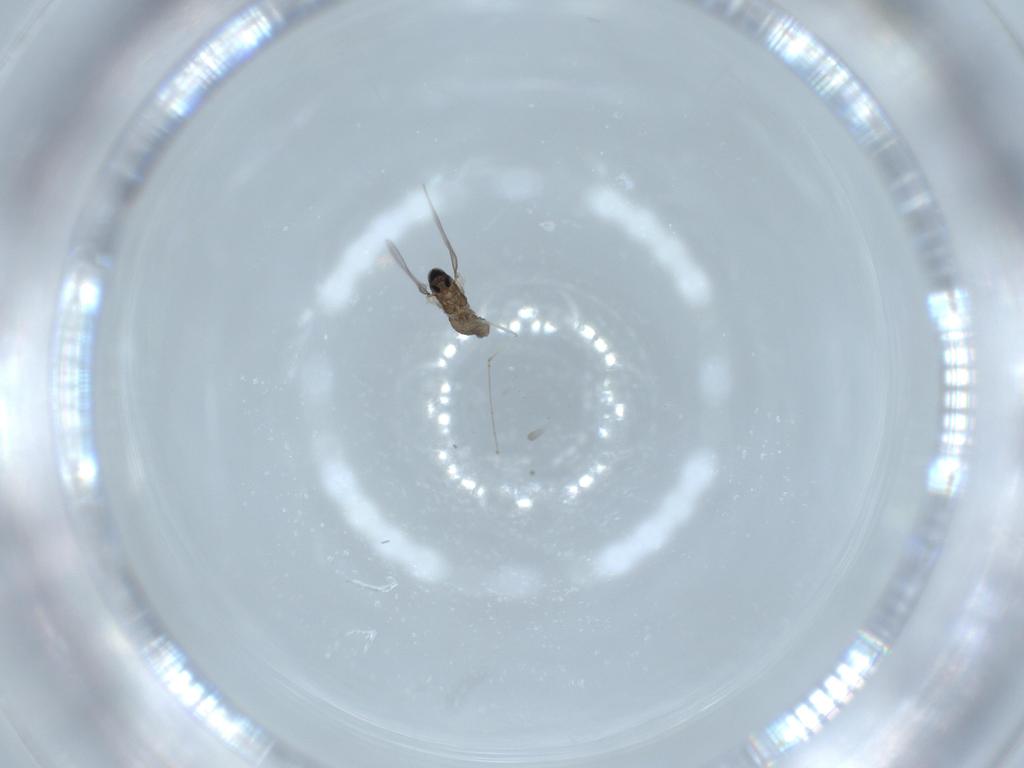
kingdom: Animalia
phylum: Arthropoda
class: Insecta
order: Diptera
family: Cecidomyiidae
